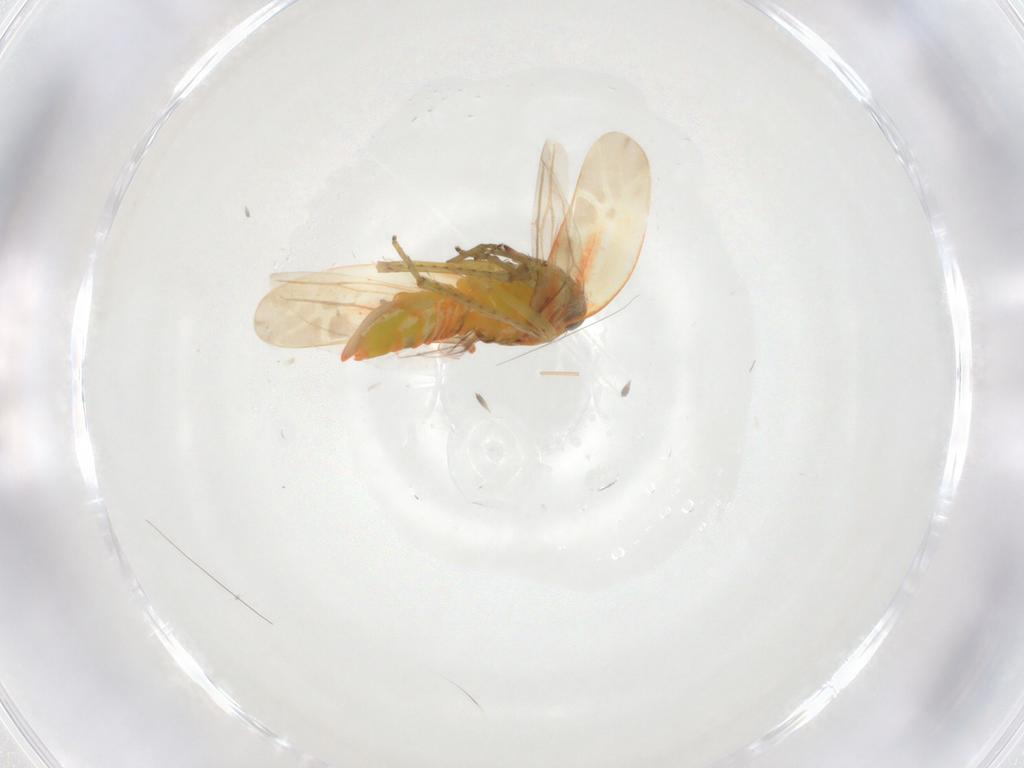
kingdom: Animalia
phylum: Arthropoda
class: Insecta
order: Hemiptera
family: Cicadellidae
